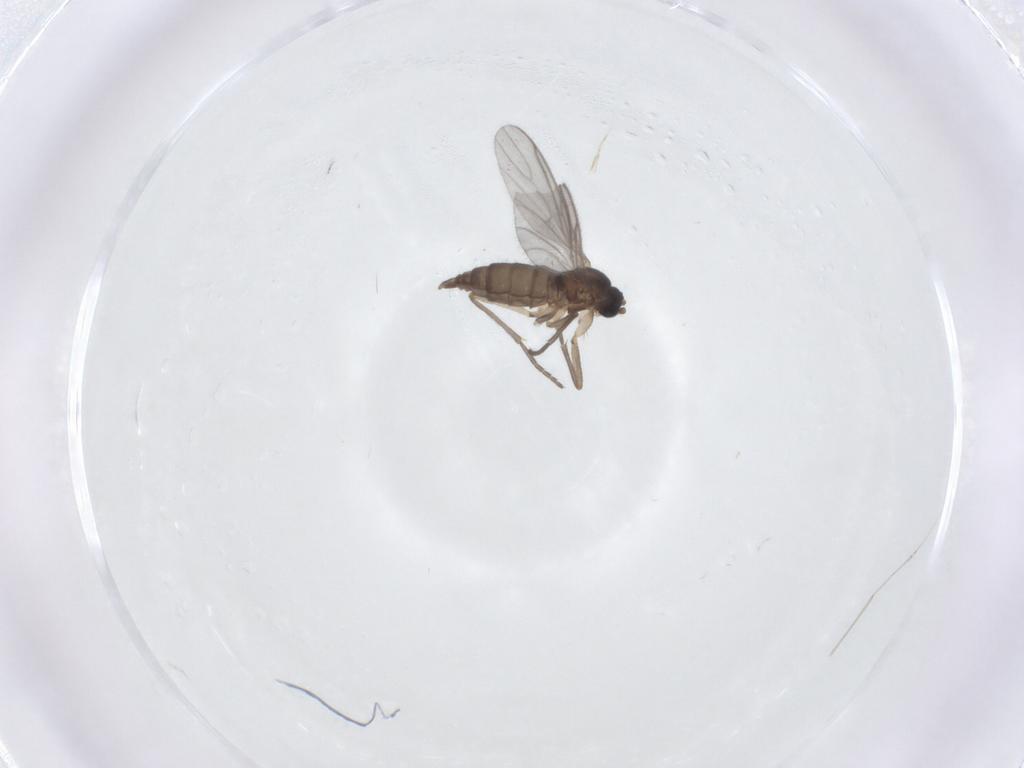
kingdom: Animalia
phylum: Arthropoda
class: Insecta
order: Diptera
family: Sciaridae
